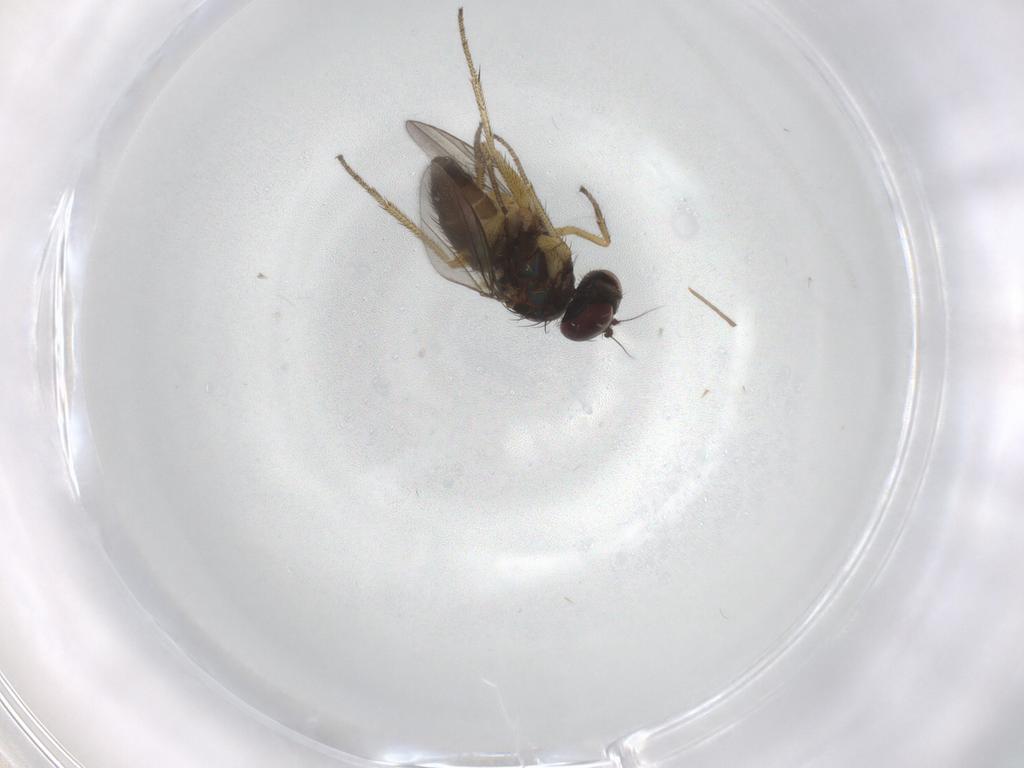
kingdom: Animalia
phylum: Arthropoda
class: Insecta
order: Diptera
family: Dolichopodidae
